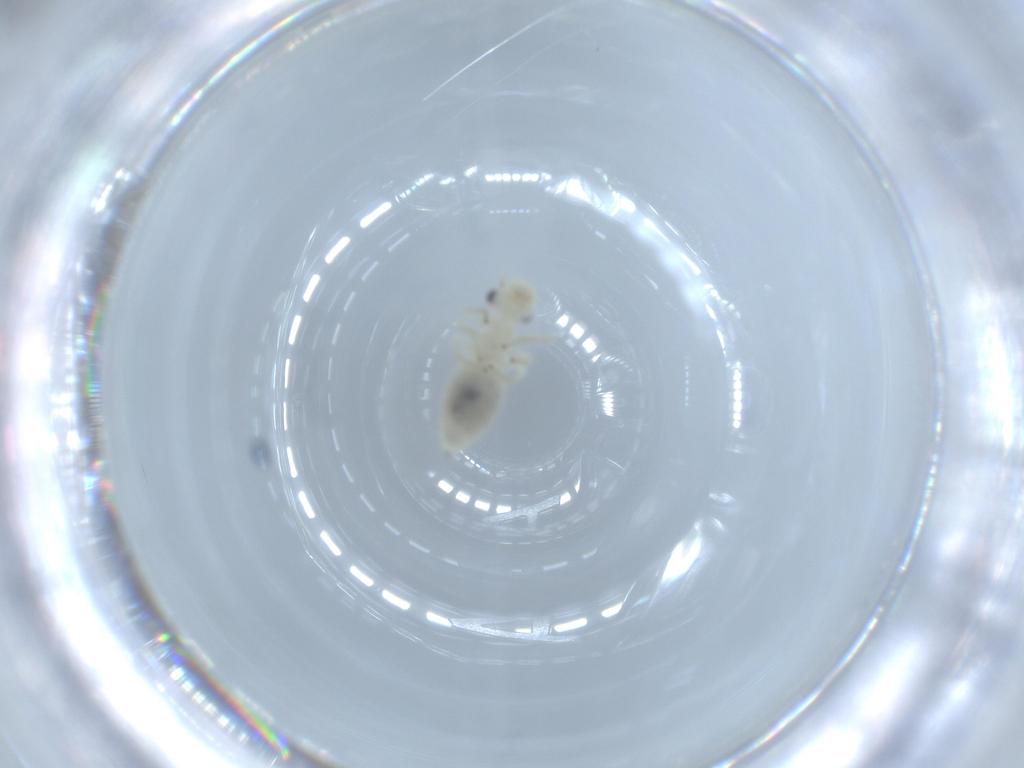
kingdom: Animalia
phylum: Arthropoda
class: Insecta
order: Psocodea
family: Caeciliusidae
